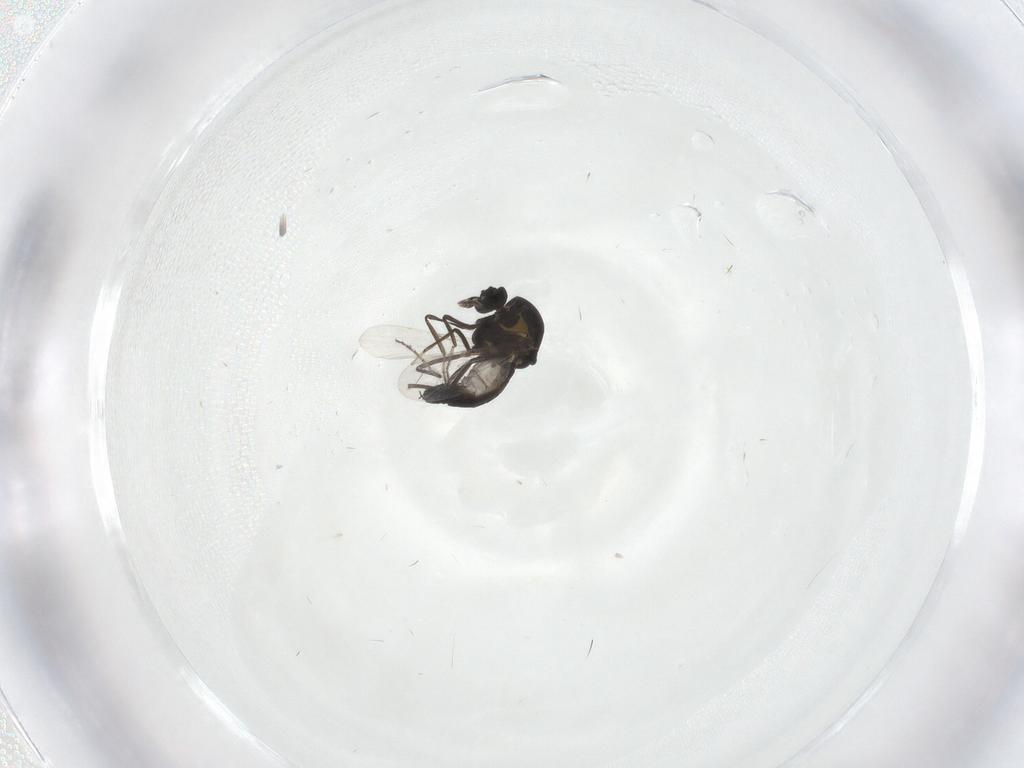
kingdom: Animalia
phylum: Arthropoda
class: Insecta
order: Diptera
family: Ceratopogonidae
